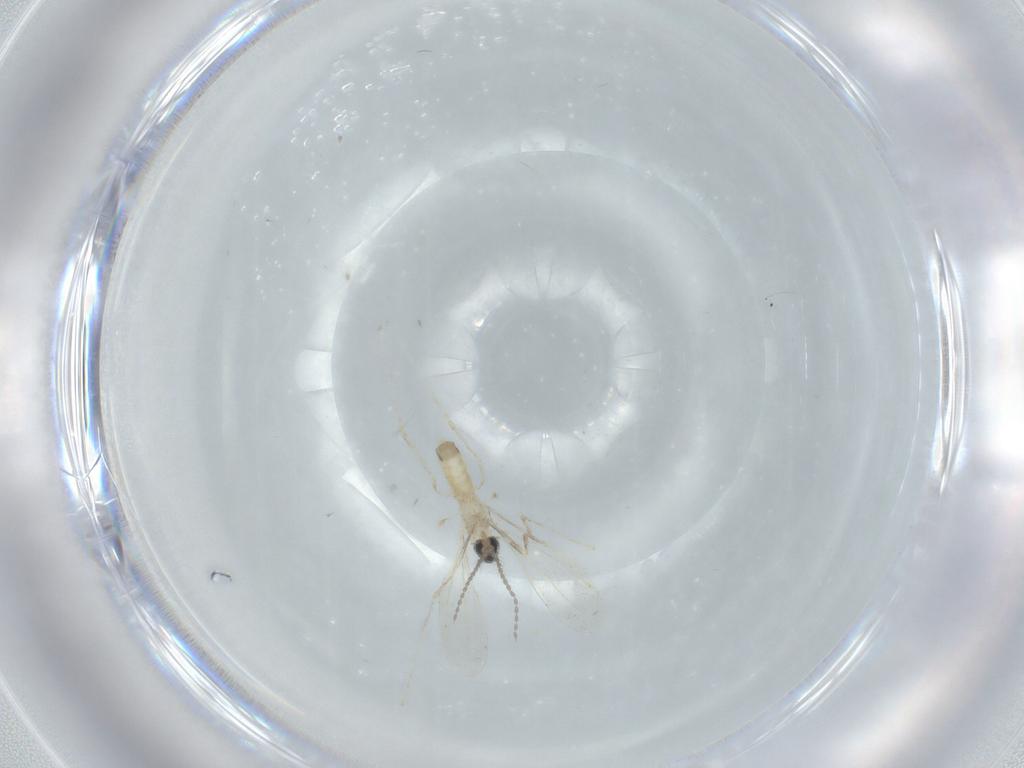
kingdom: Animalia
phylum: Arthropoda
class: Insecta
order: Diptera
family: Cecidomyiidae
